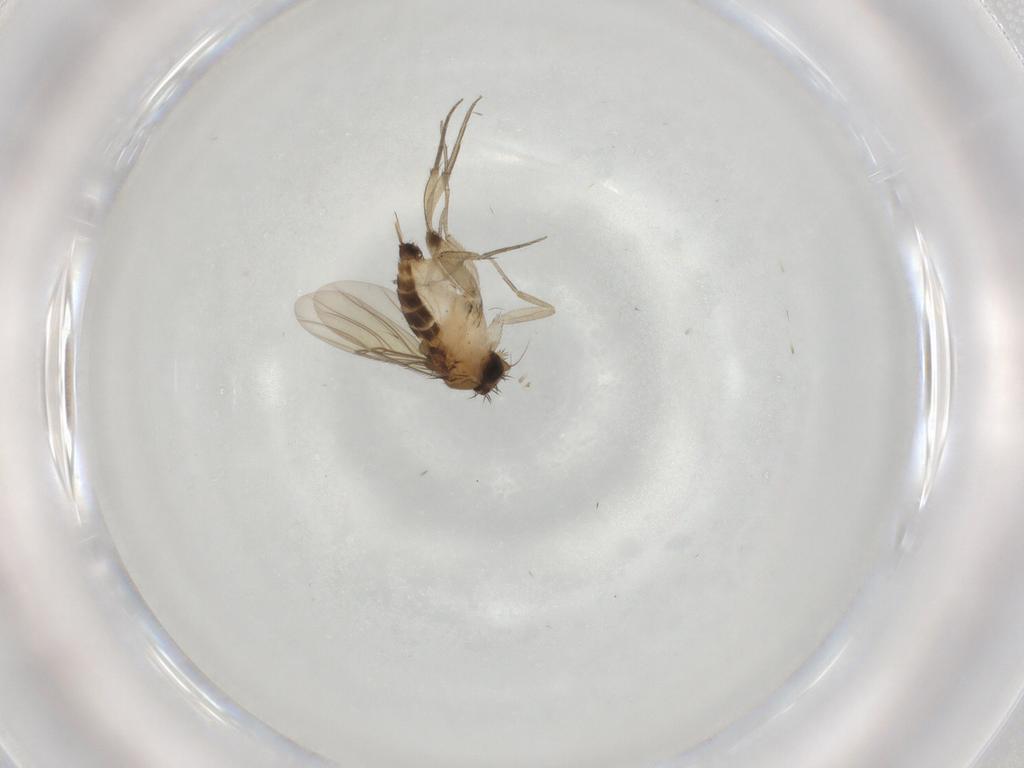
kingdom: Animalia
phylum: Arthropoda
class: Insecta
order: Diptera
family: Phoridae
